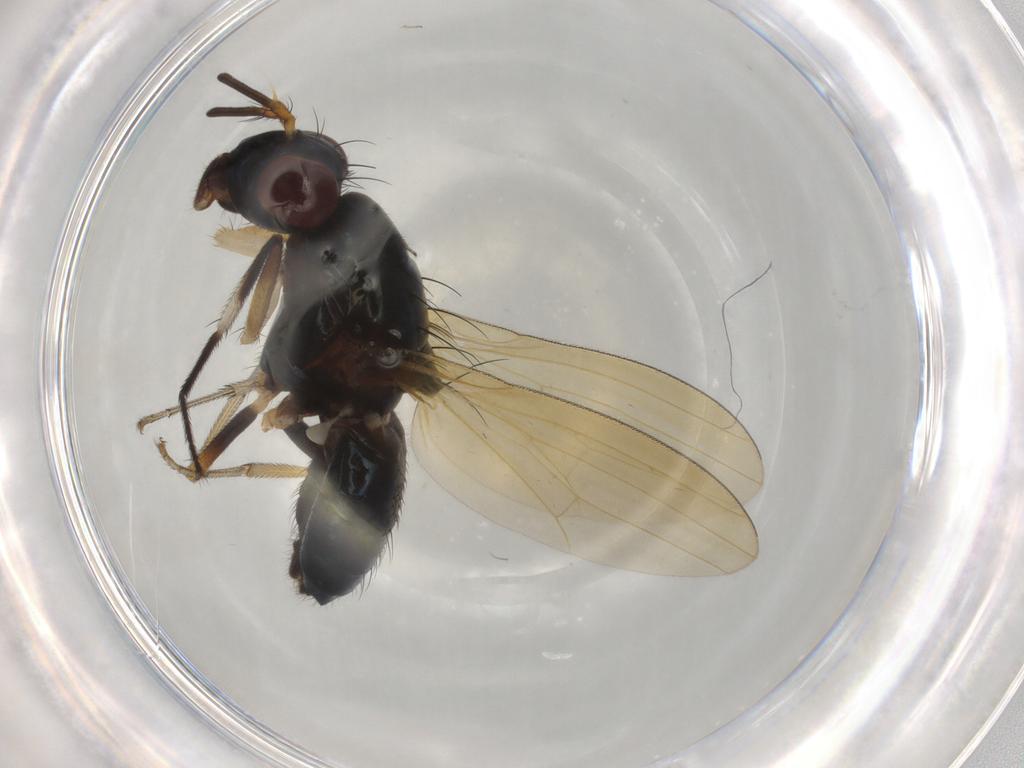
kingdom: Animalia
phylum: Arthropoda
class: Insecta
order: Diptera
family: Lauxaniidae
